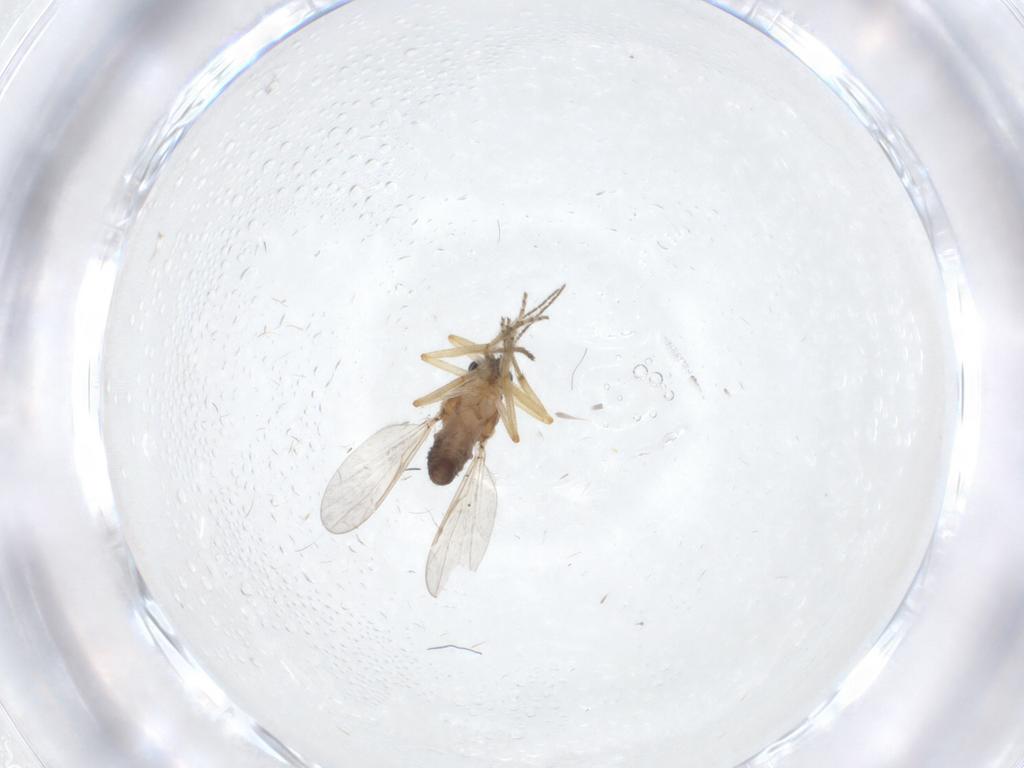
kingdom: Animalia
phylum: Arthropoda
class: Insecta
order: Diptera
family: Ceratopogonidae
